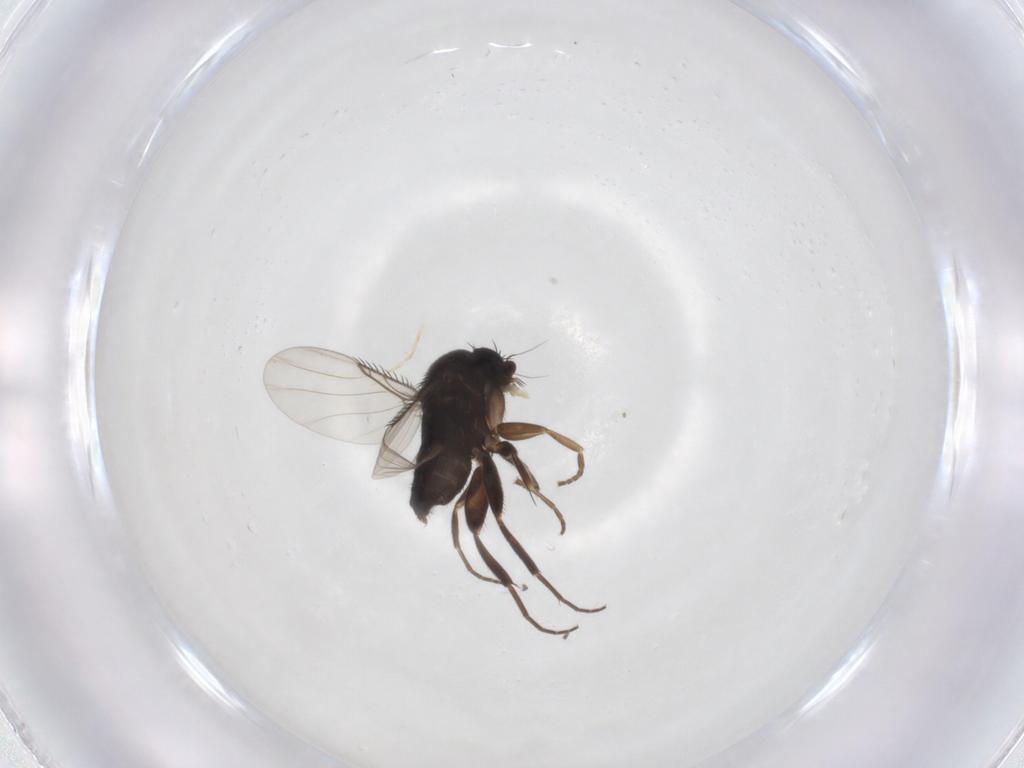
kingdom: Animalia
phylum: Arthropoda
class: Insecta
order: Diptera
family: Phoridae
